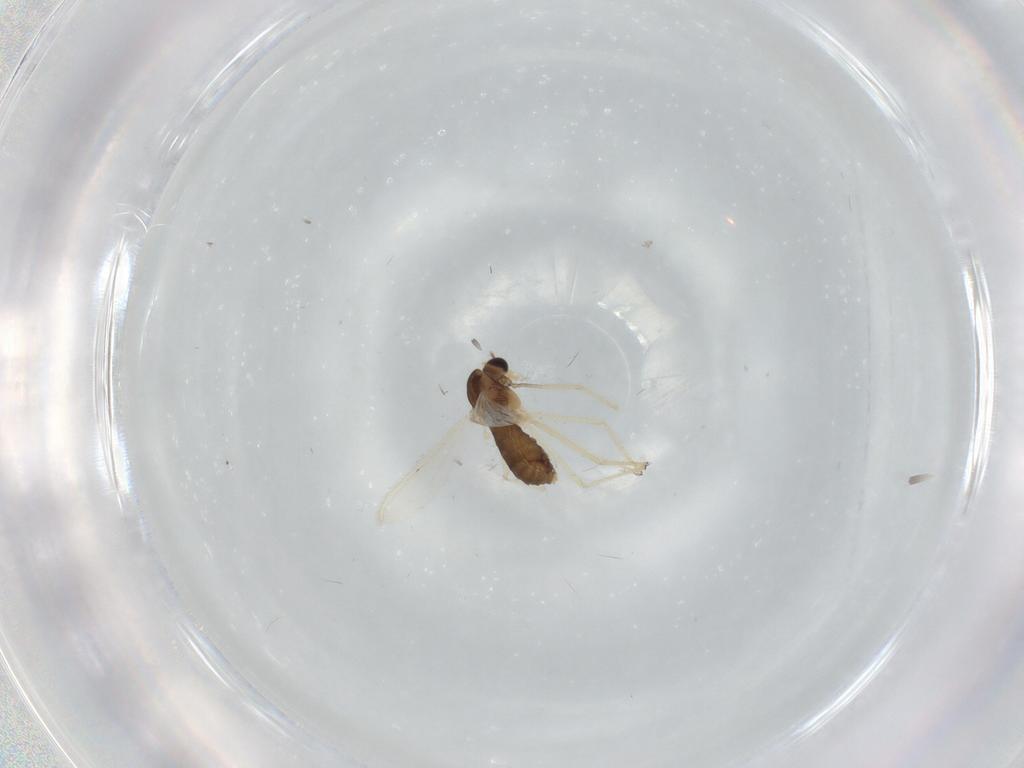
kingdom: Animalia
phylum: Arthropoda
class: Insecta
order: Diptera
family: Chironomidae
